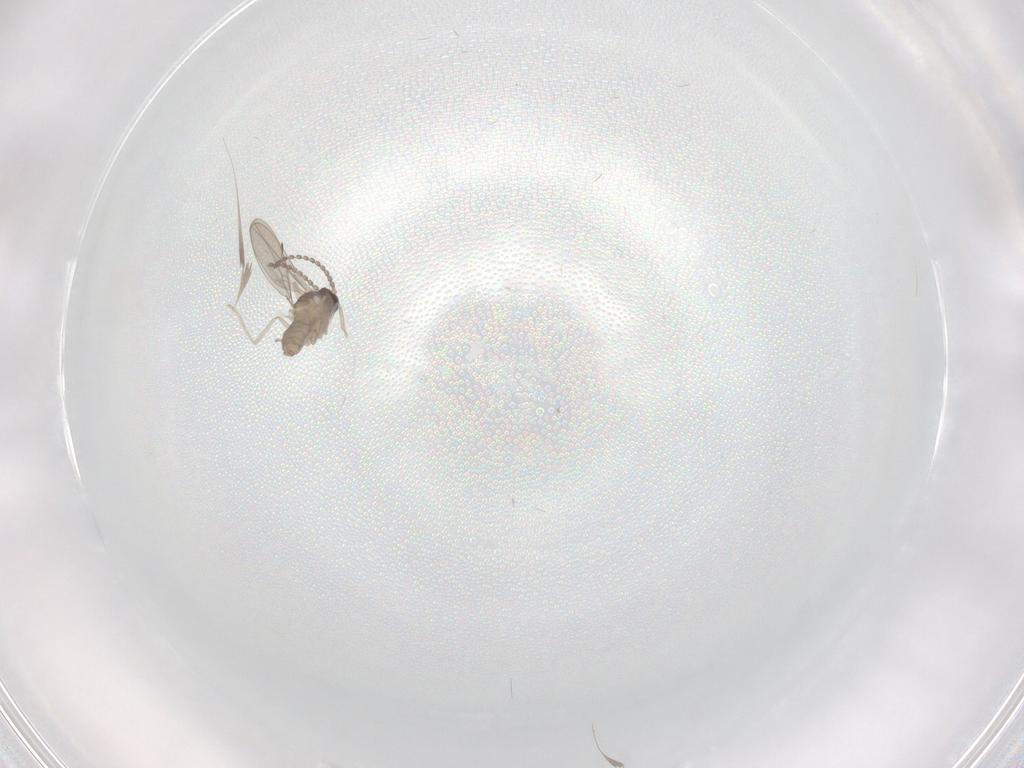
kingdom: Animalia
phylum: Arthropoda
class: Insecta
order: Diptera
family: Cecidomyiidae
